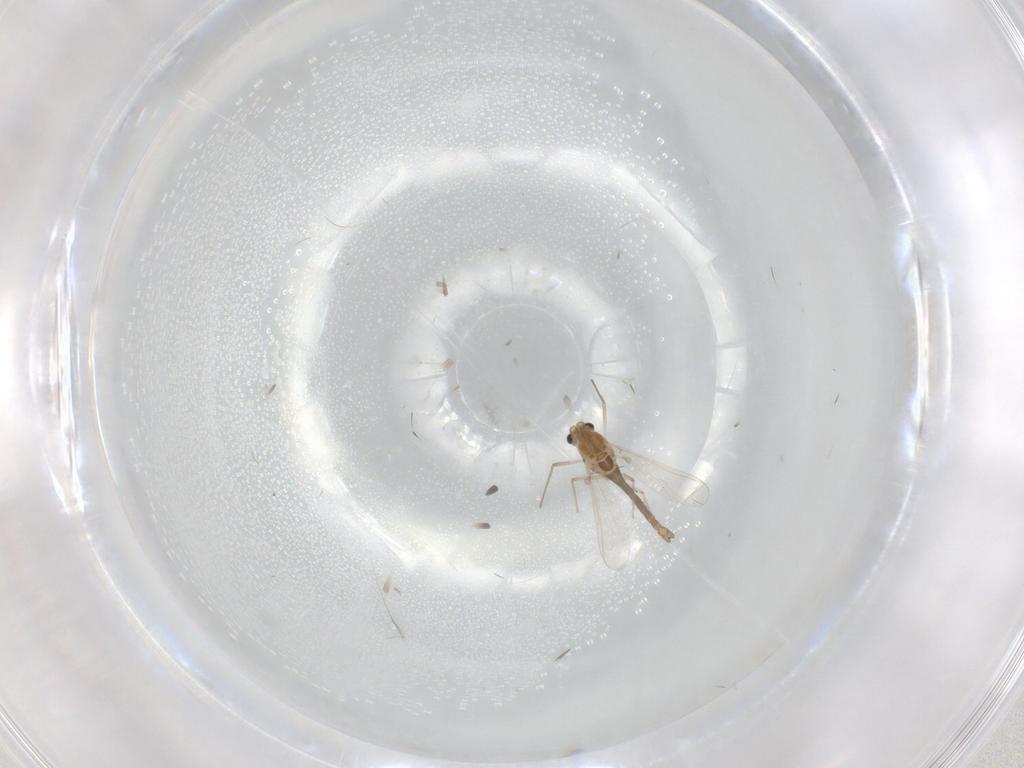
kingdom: Animalia
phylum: Arthropoda
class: Insecta
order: Diptera
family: Chironomidae
